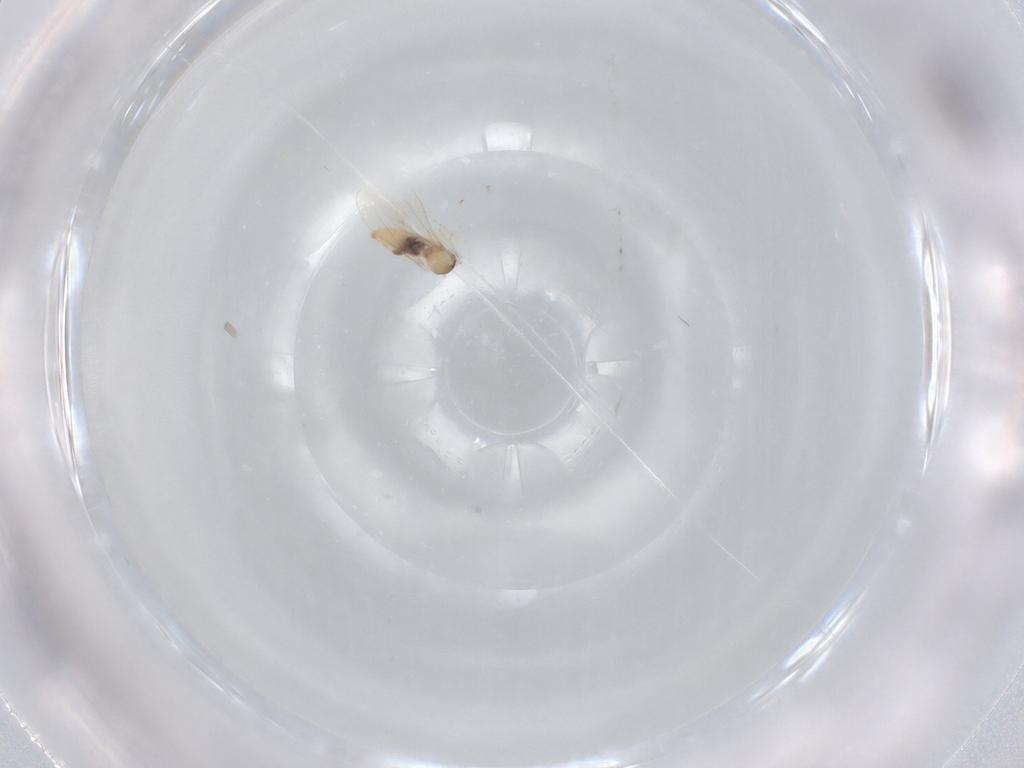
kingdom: Animalia
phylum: Arthropoda
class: Insecta
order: Diptera
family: Cecidomyiidae
